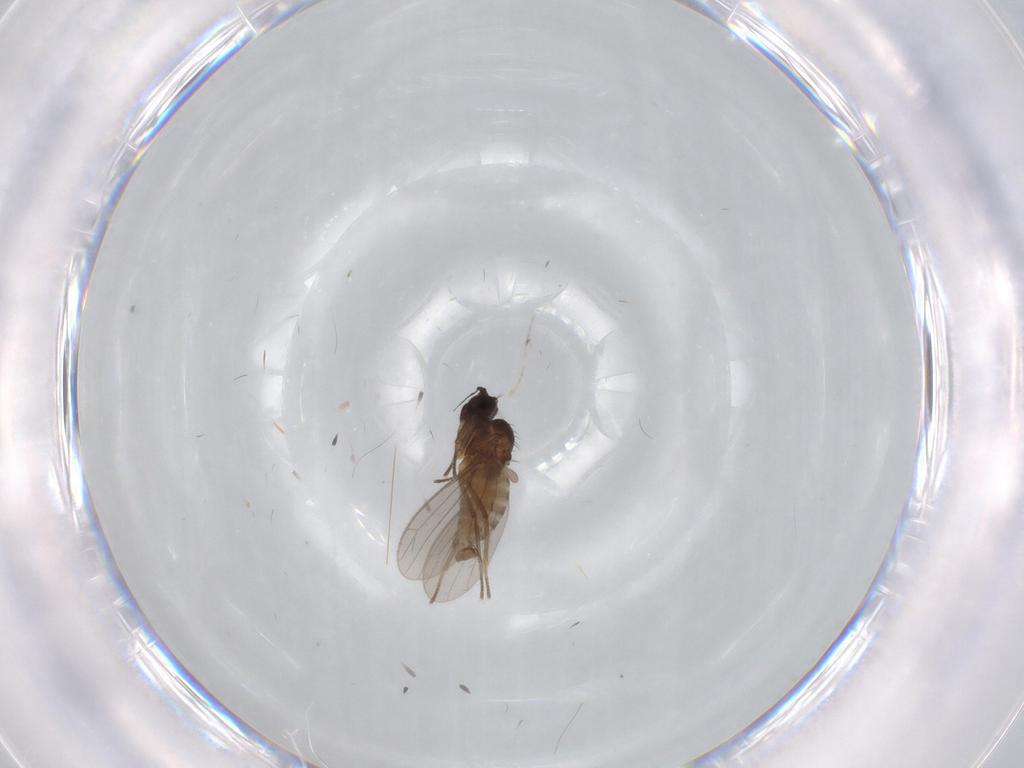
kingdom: Animalia
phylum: Arthropoda
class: Insecta
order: Diptera
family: Empididae
